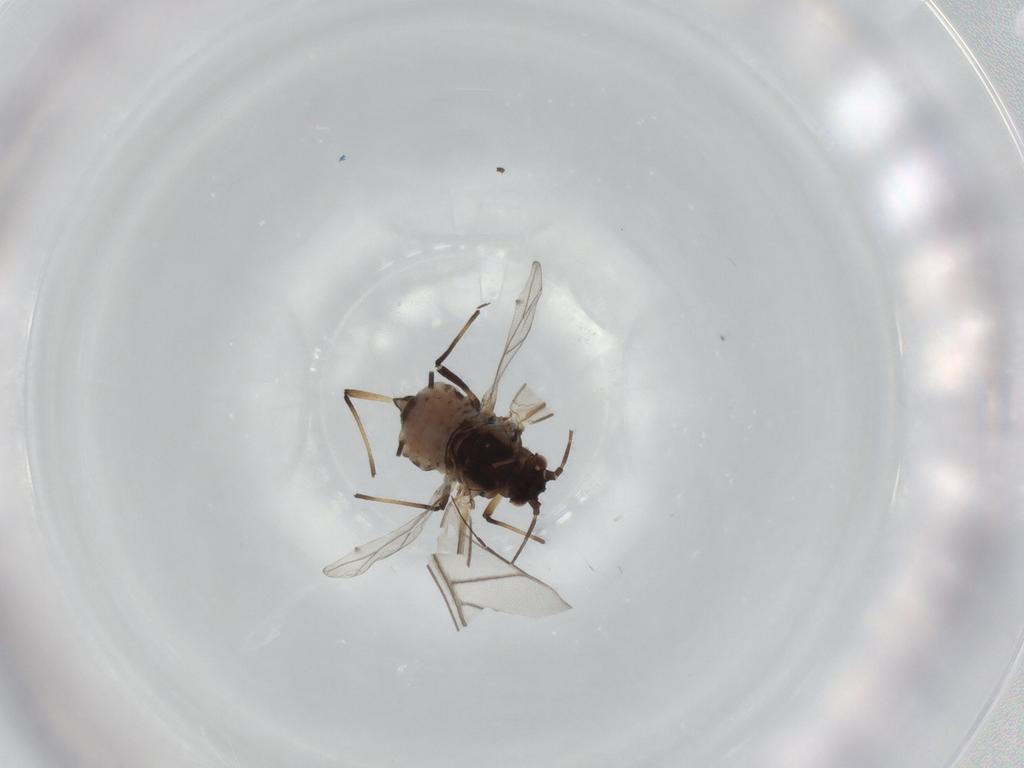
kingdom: Animalia
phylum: Arthropoda
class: Insecta
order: Hemiptera
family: Aphididae
